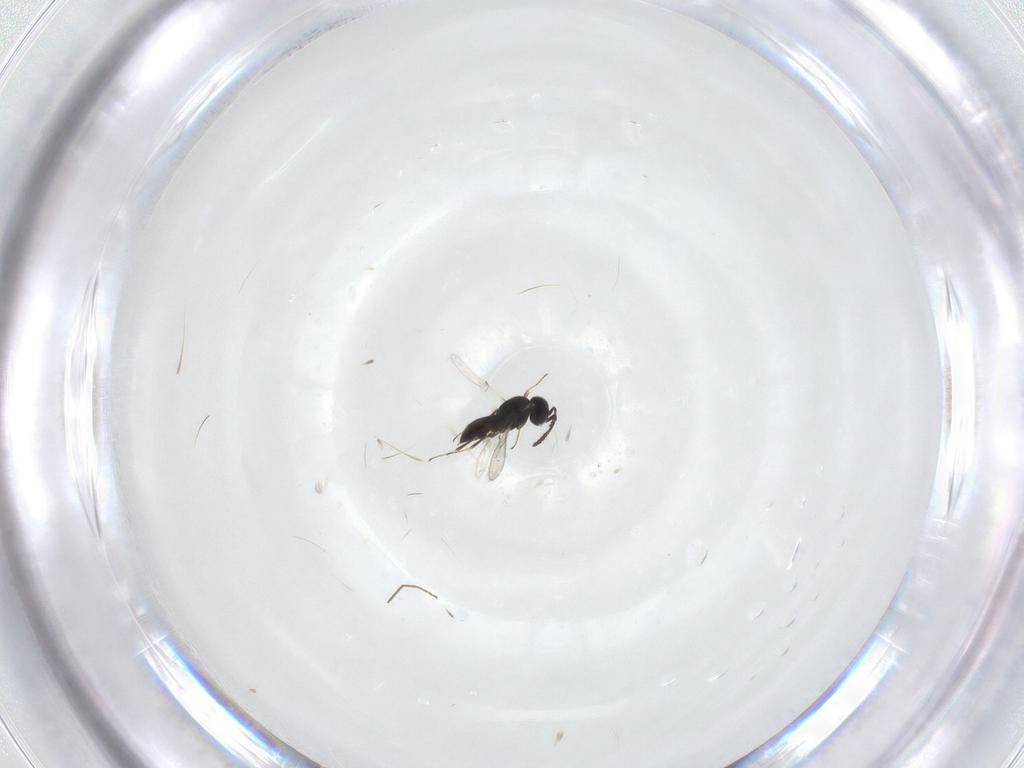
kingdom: Animalia
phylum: Arthropoda
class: Insecta
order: Hymenoptera
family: Scelionidae
